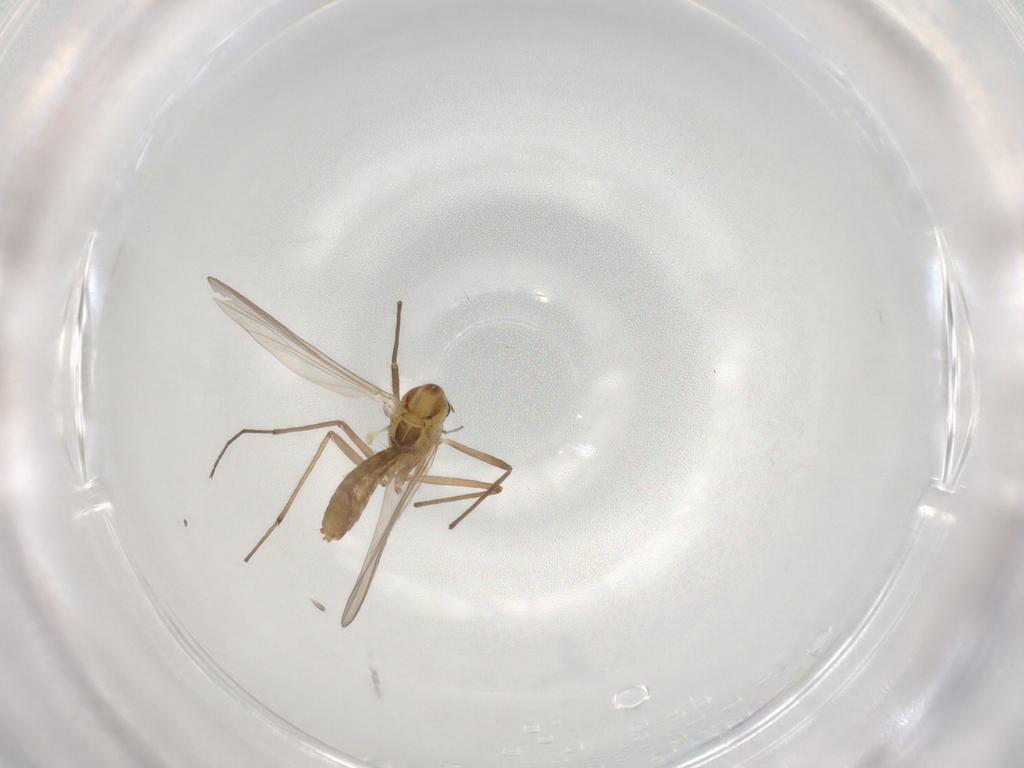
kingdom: Animalia
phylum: Arthropoda
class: Insecta
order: Diptera
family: Chironomidae
